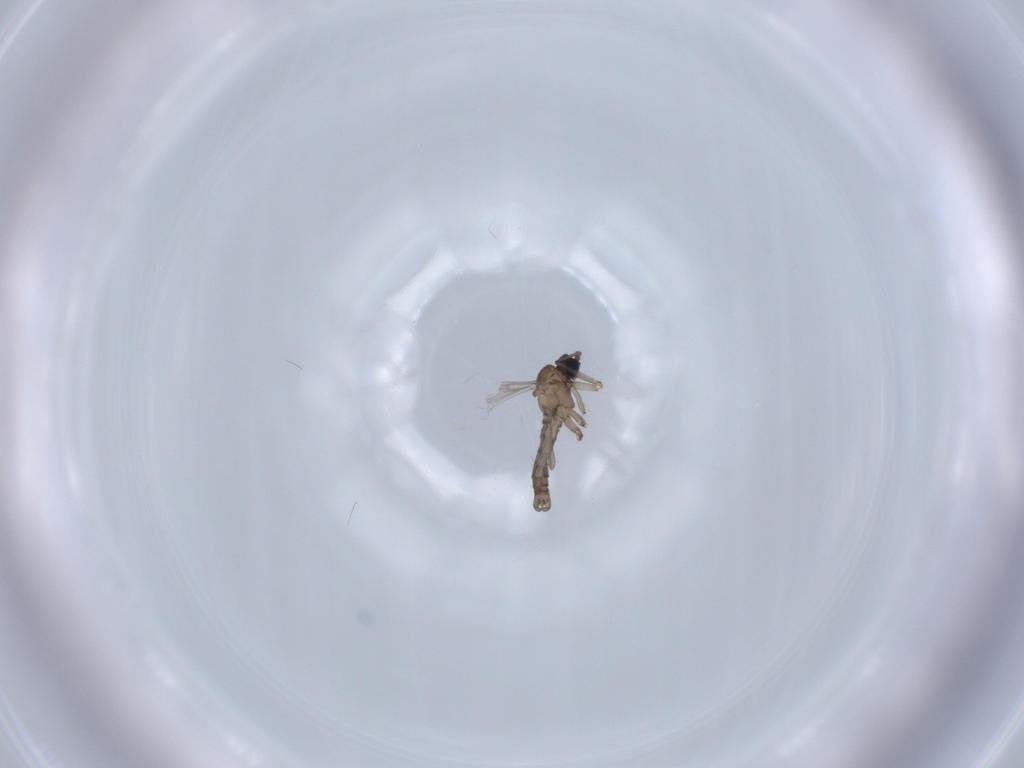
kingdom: Animalia
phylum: Arthropoda
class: Insecta
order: Diptera
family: Sciaridae
